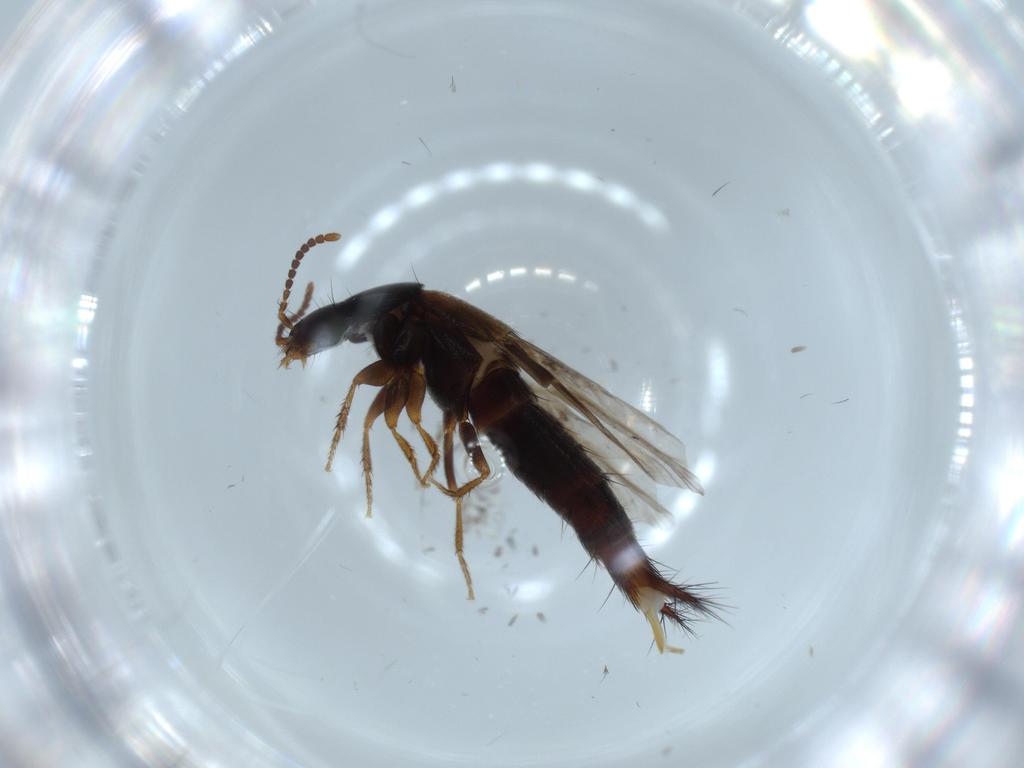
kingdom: Animalia
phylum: Arthropoda
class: Insecta
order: Coleoptera
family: Staphylinidae
